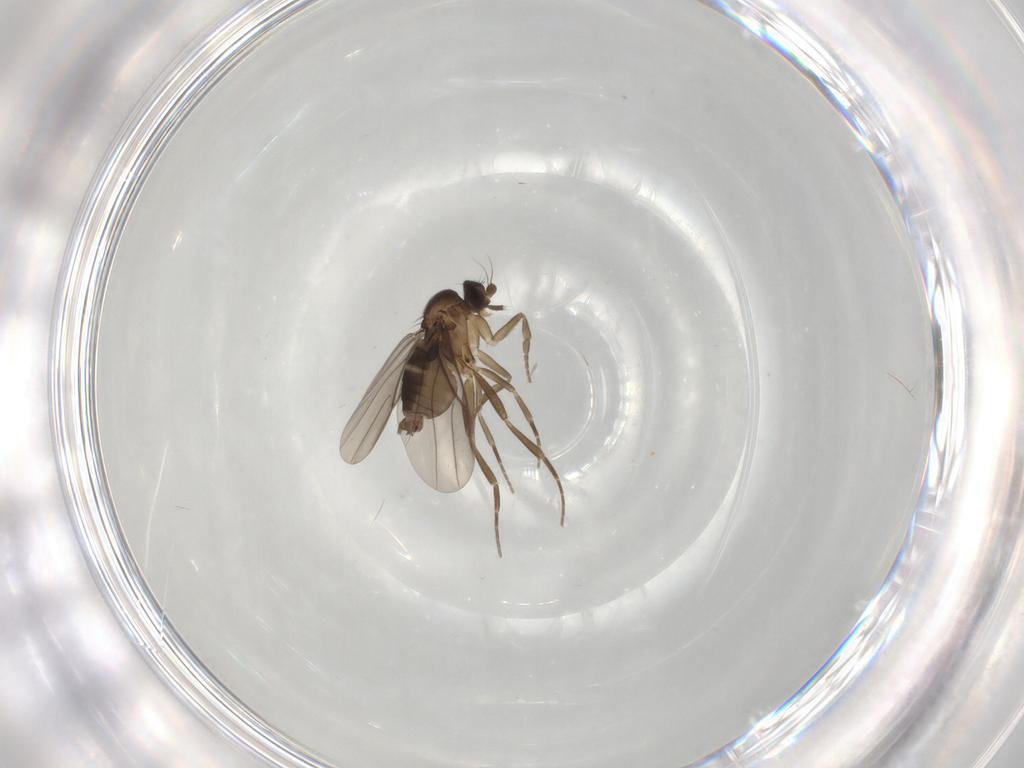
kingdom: Animalia
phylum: Arthropoda
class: Insecta
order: Diptera
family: Phoridae
